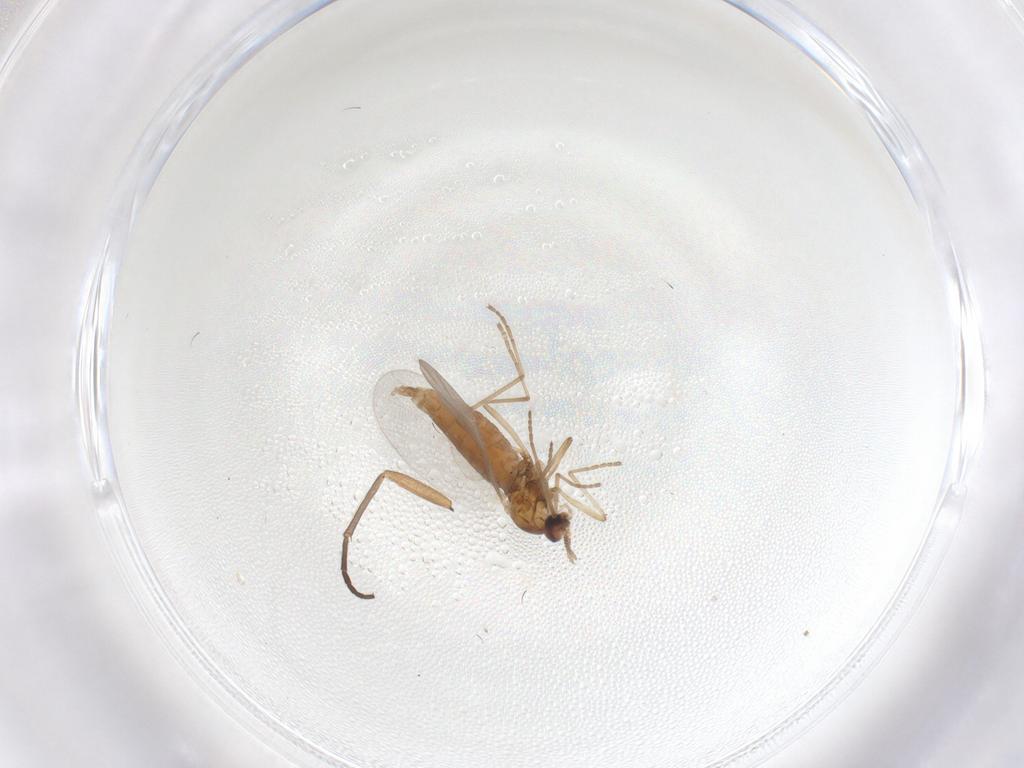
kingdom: Animalia
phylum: Arthropoda
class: Insecta
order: Diptera
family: Cecidomyiidae
